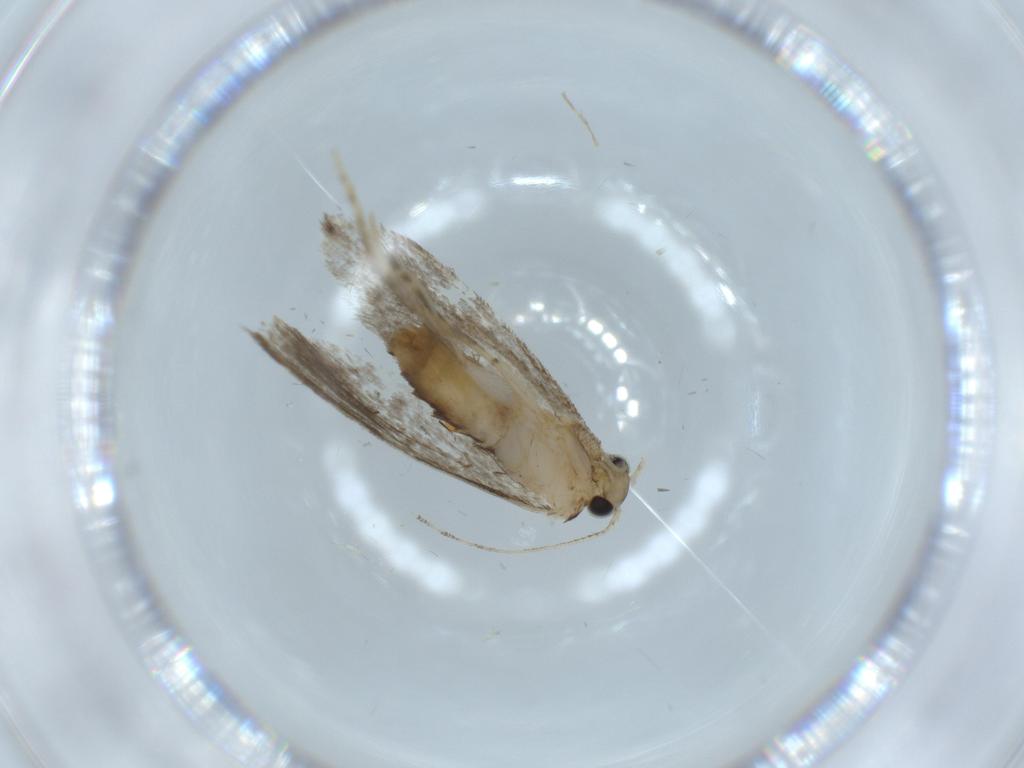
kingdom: Animalia
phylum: Arthropoda
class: Insecta
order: Lepidoptera
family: Tineidae
